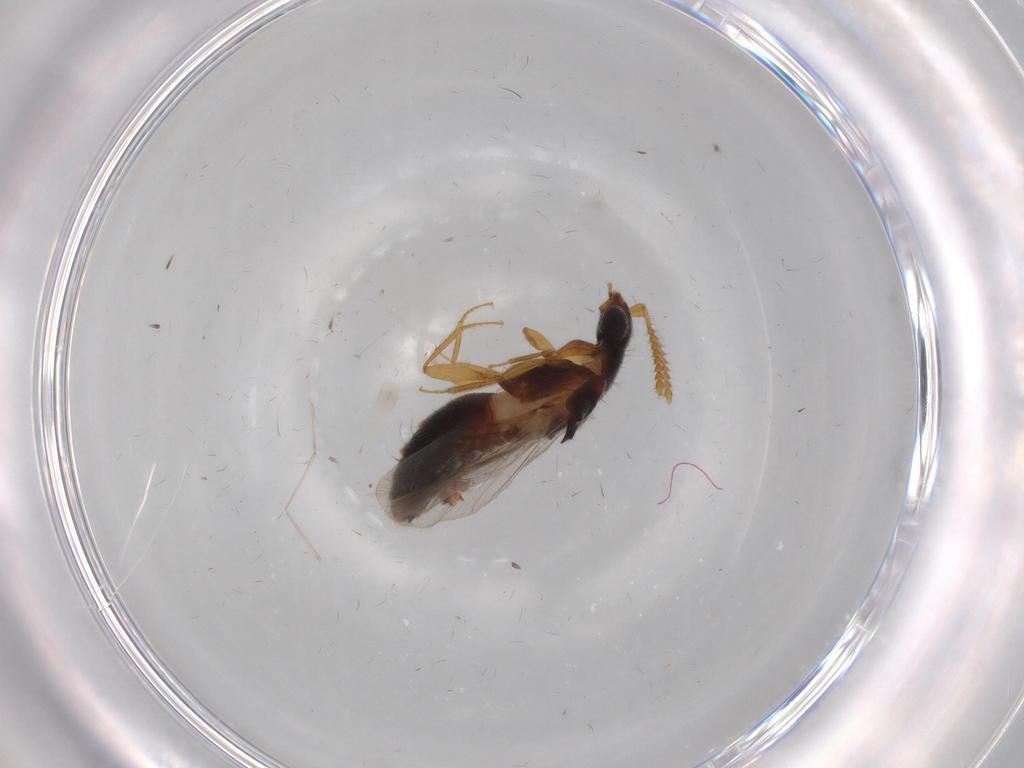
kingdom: Animalia
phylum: Arthropoda
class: Insecta
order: Coleoptera
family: Staphylinidae
